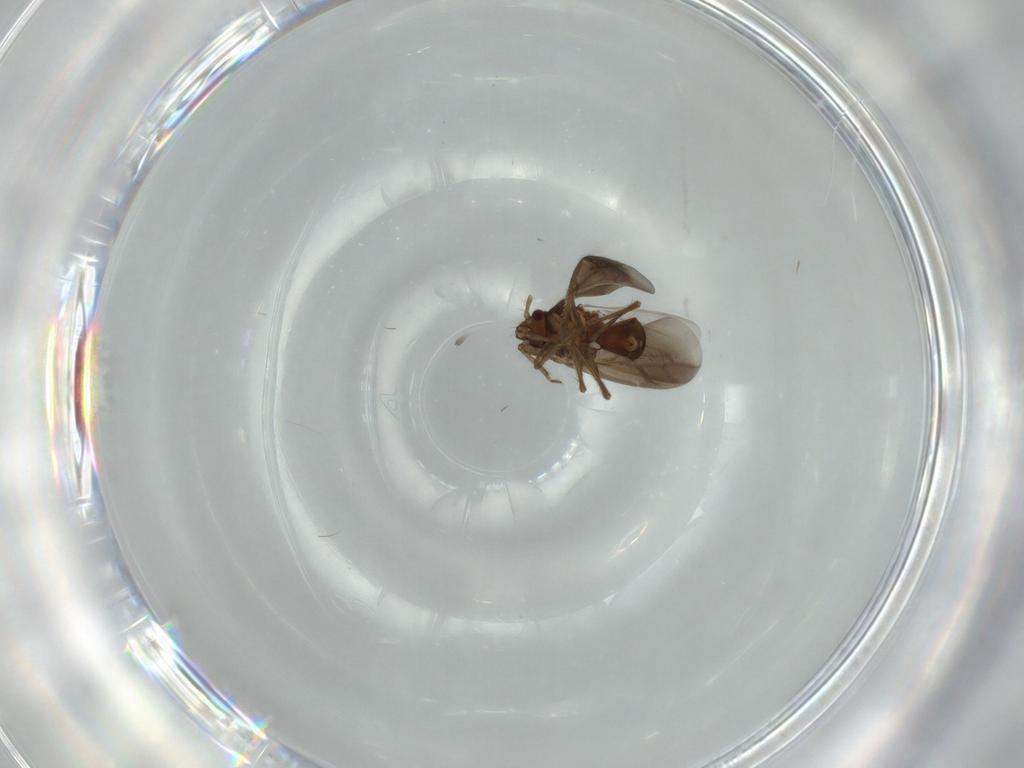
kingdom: Animalia
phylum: Arthropoda
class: Insecta
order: Hemiptera
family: Ceratocombidae
